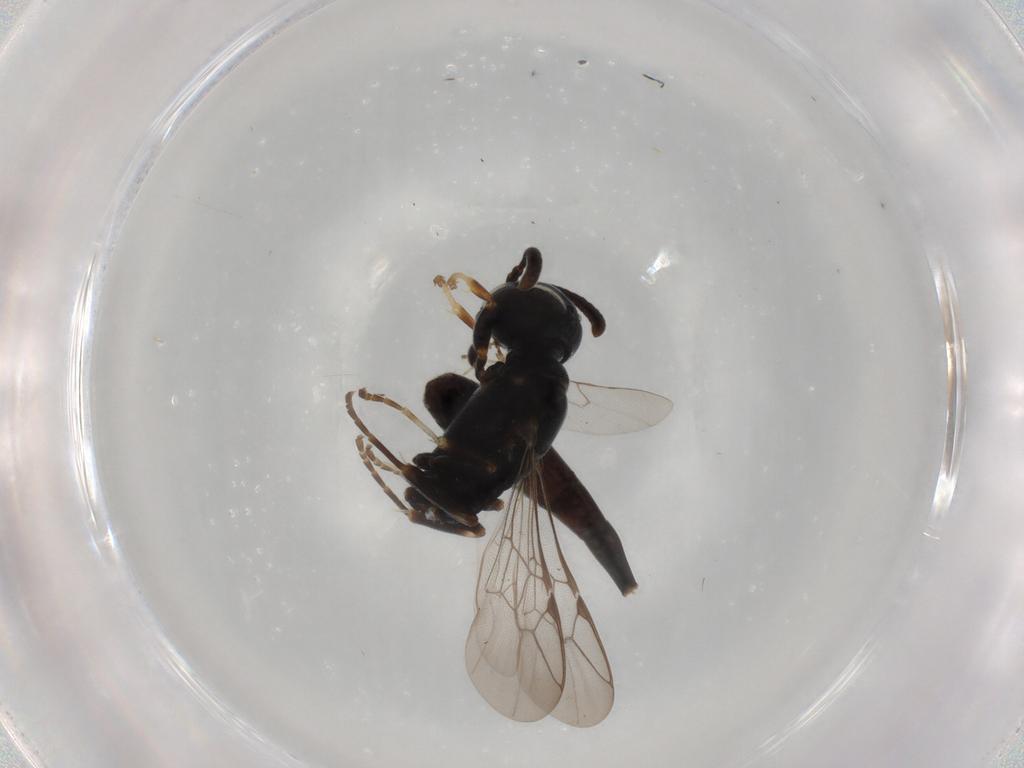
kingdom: Animalia
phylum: Arthropoda
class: Insecta
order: Hymenoptera
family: Crabronidae
